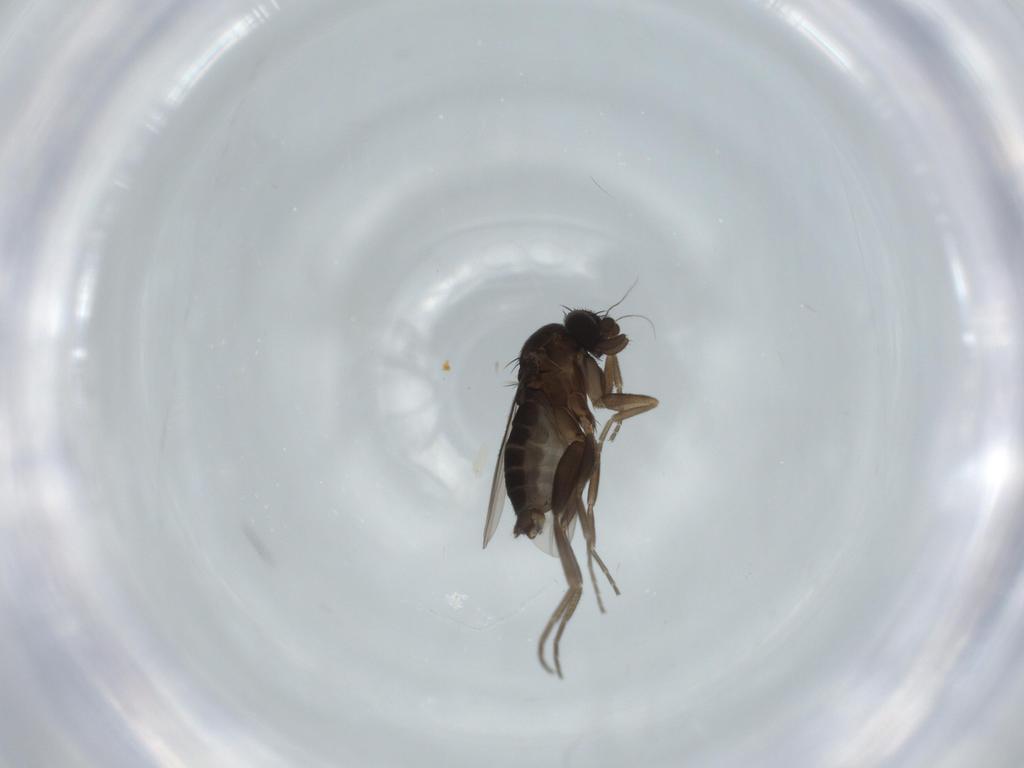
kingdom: Animalia
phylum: Arthropoda
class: Insecta
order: Diptera
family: Phoridae
